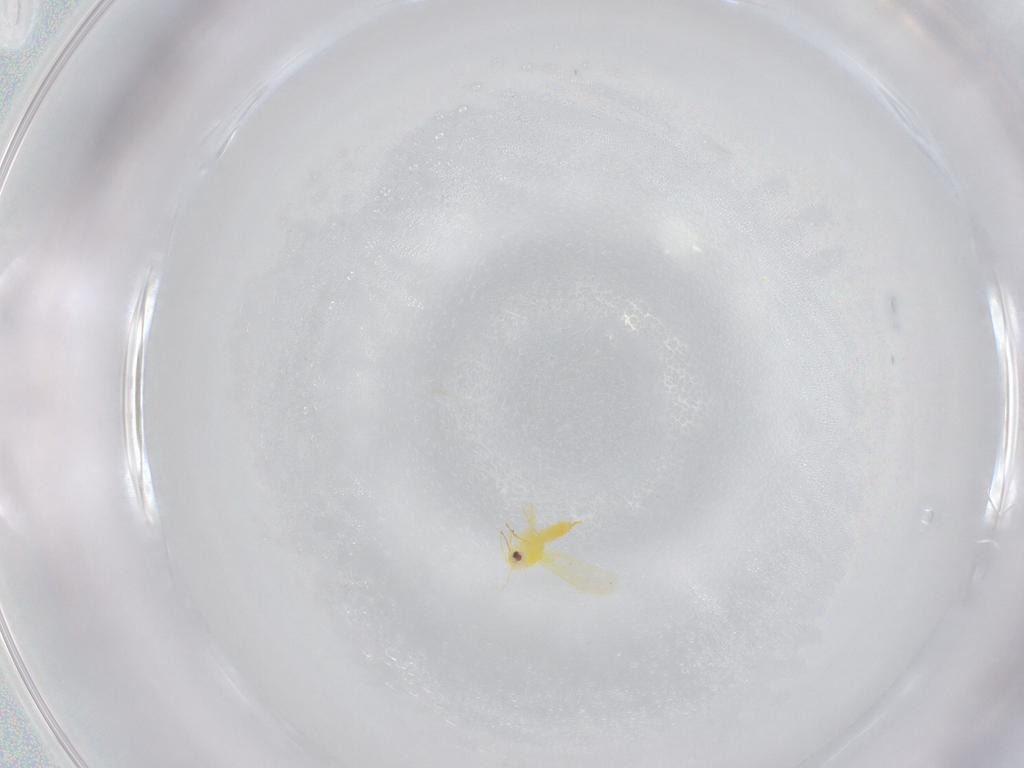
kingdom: Animalia
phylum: Arthropoda
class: Insecta
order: Hemiptera
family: Aleyrodidae
